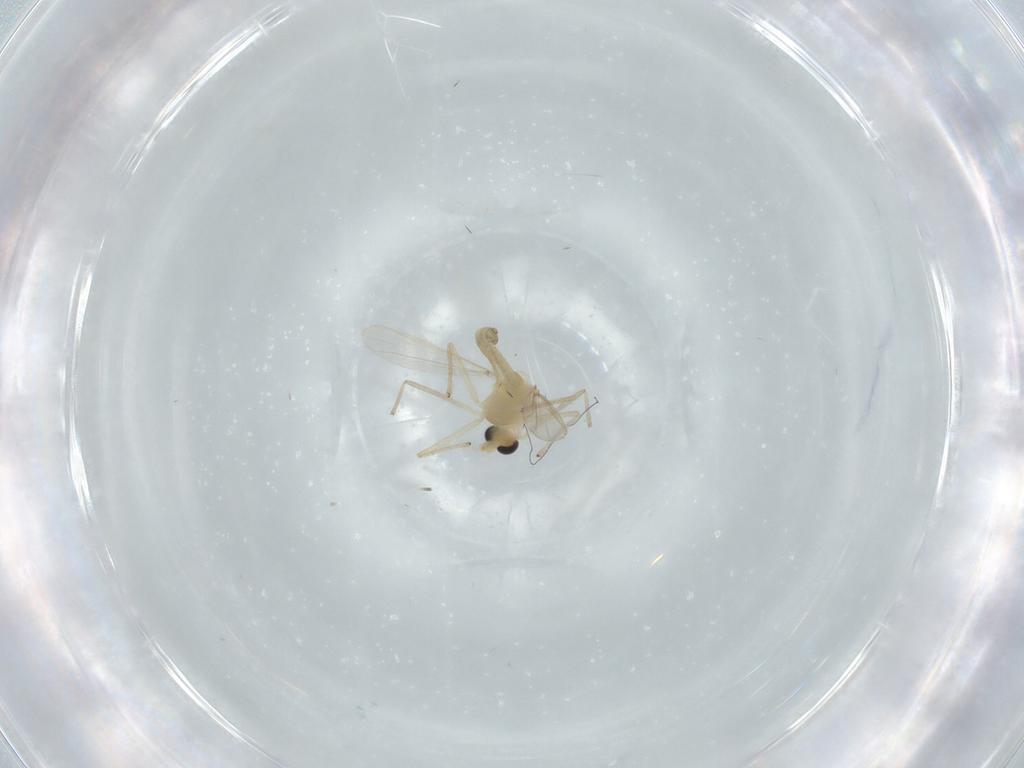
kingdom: Animalia
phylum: Arthropoda
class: Insecta
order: Diptera
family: Chironomidae
